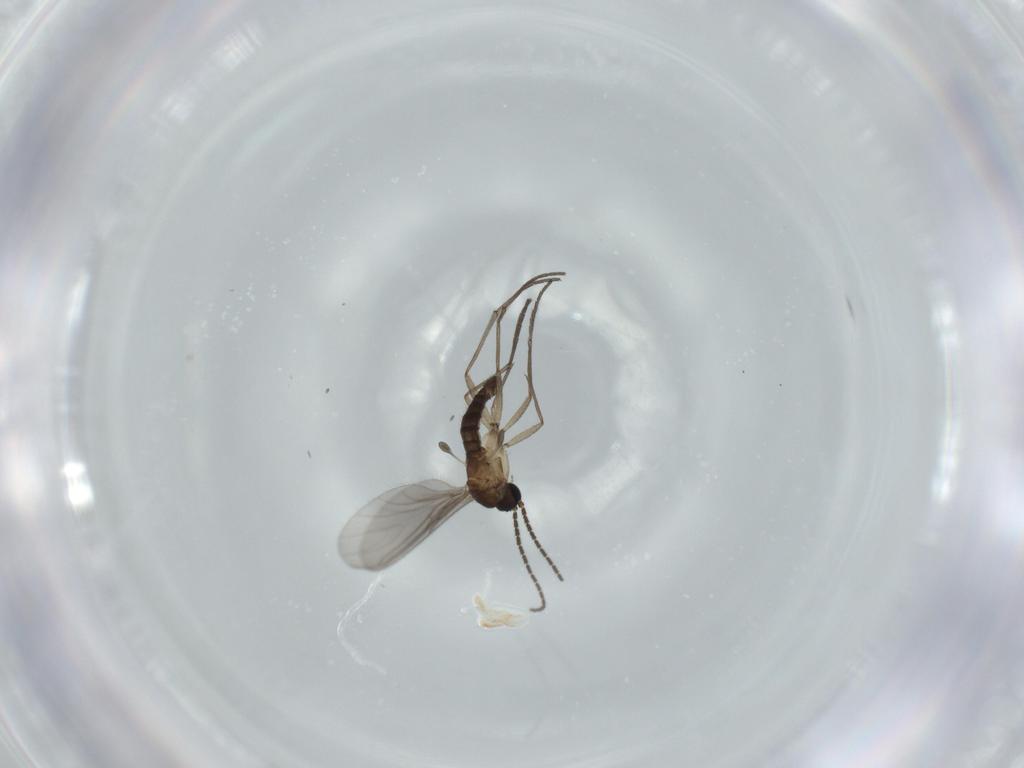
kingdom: Animalia
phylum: Arthropoda
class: Insecta
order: Diptera
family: Sciaridae
